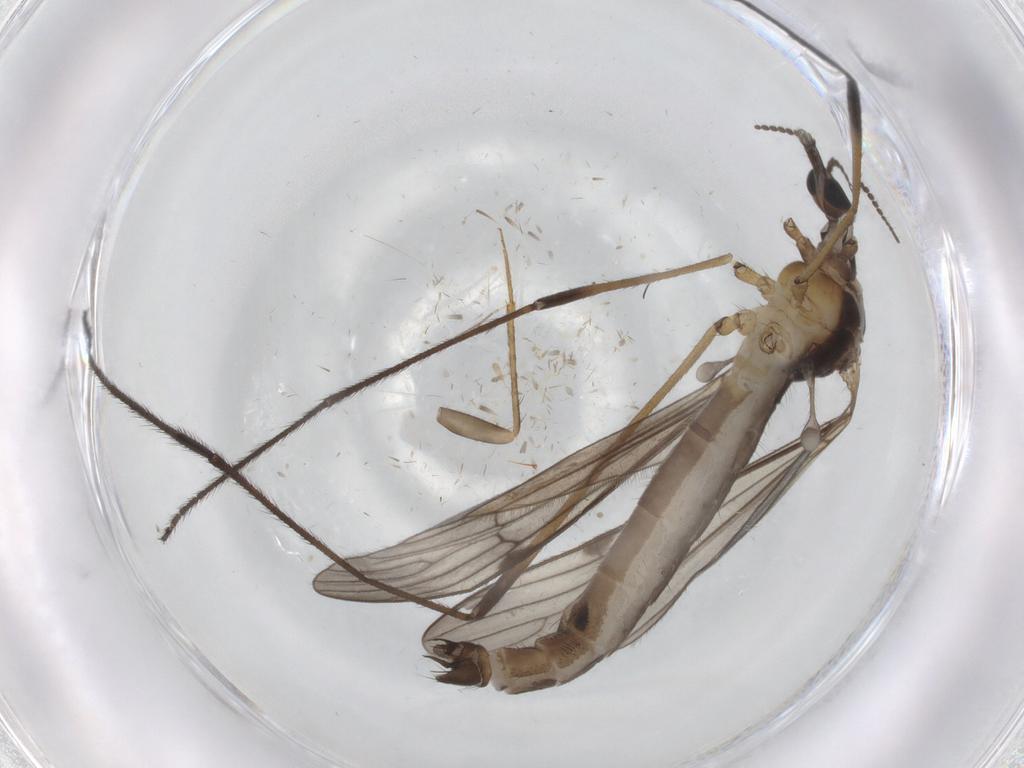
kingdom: Animalia
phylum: Arthropoda
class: Insecta
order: Diptera
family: Limoniidae
